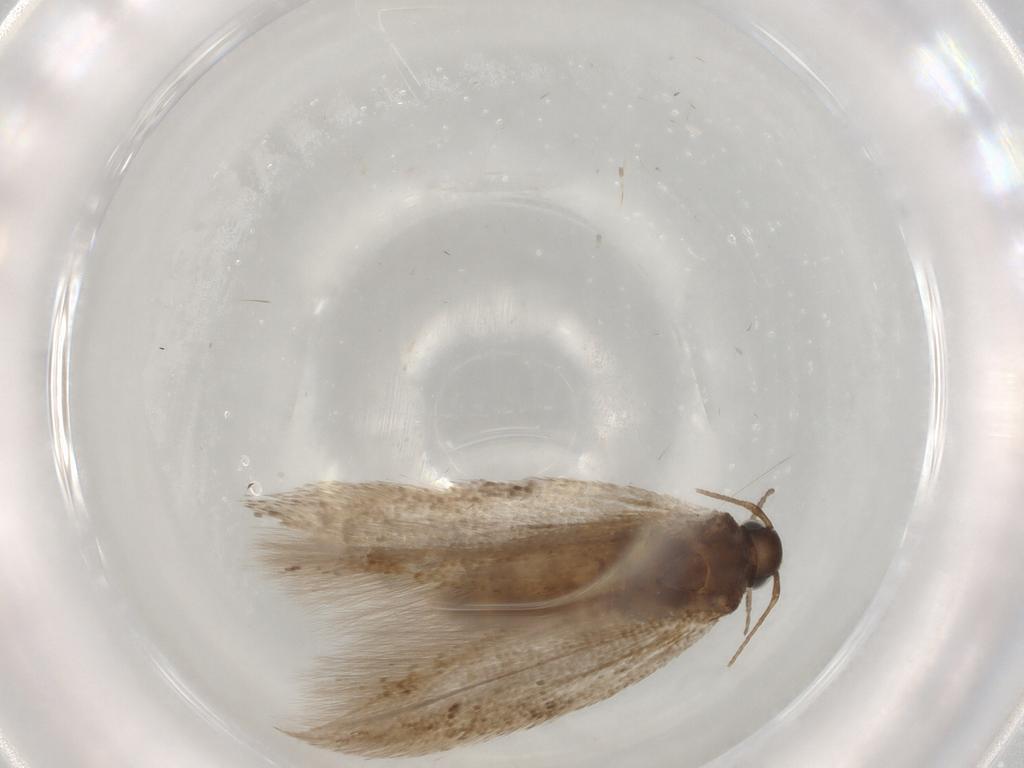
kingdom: Animalia
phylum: Arthropoda
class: Insecta
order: Lepidoptera
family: Gelechiidae
